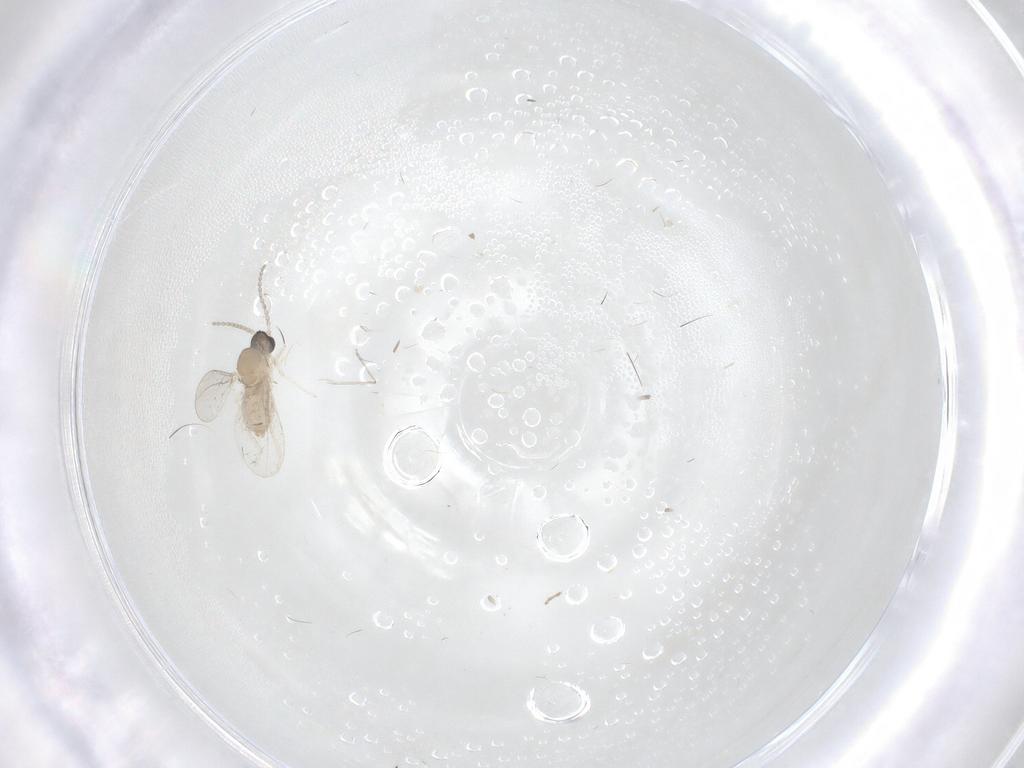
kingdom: Animalia
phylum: Arthropoda
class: Insecta
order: Diptera
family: Cecidomyiidae
